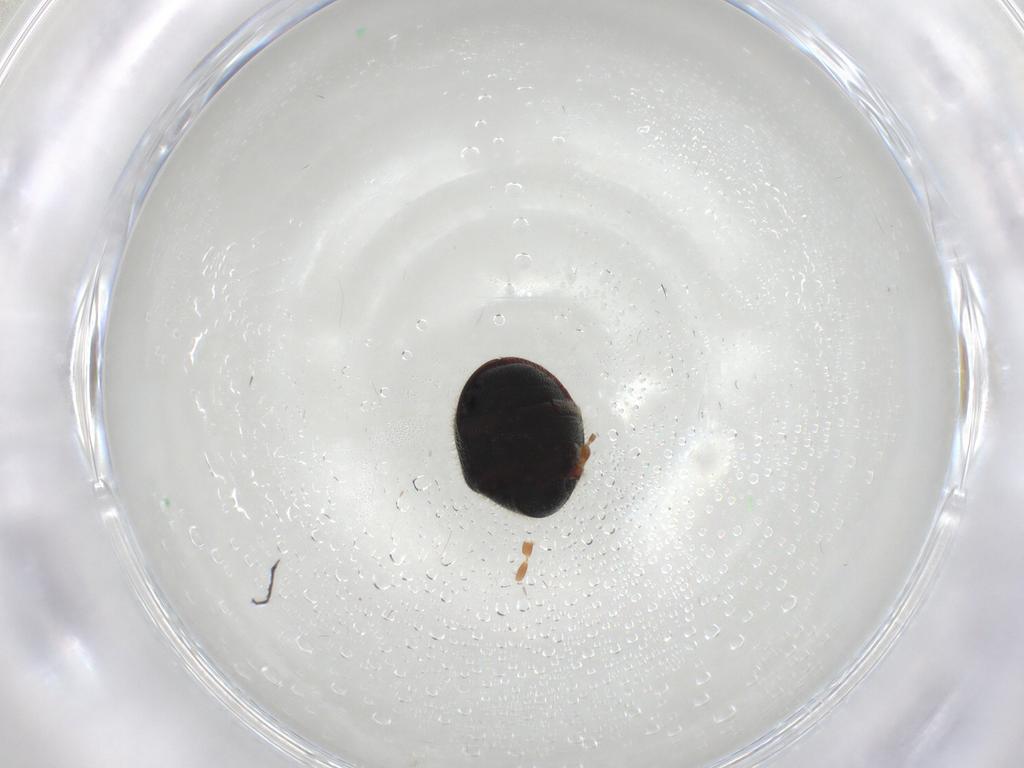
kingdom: Animalia
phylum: Arthropoda
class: Insecta
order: Coleoptera
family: Ptinidae
